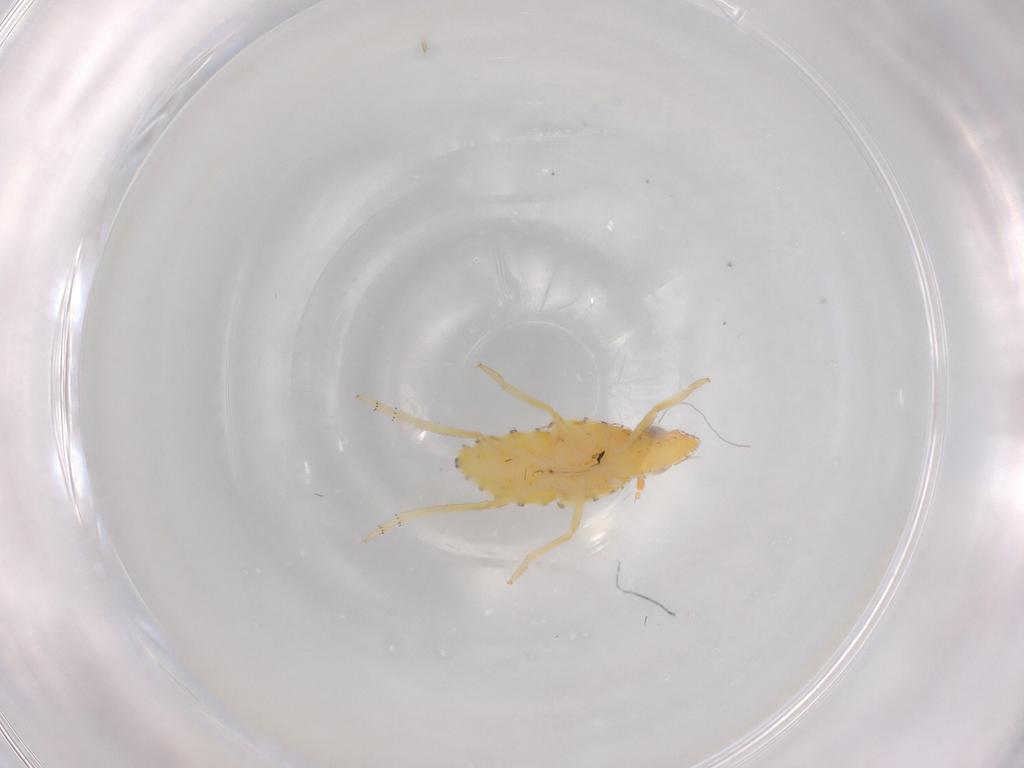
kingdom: Animalia
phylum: Arthropoda
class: Insecta
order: Hemiptera
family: Tropiduchidae
